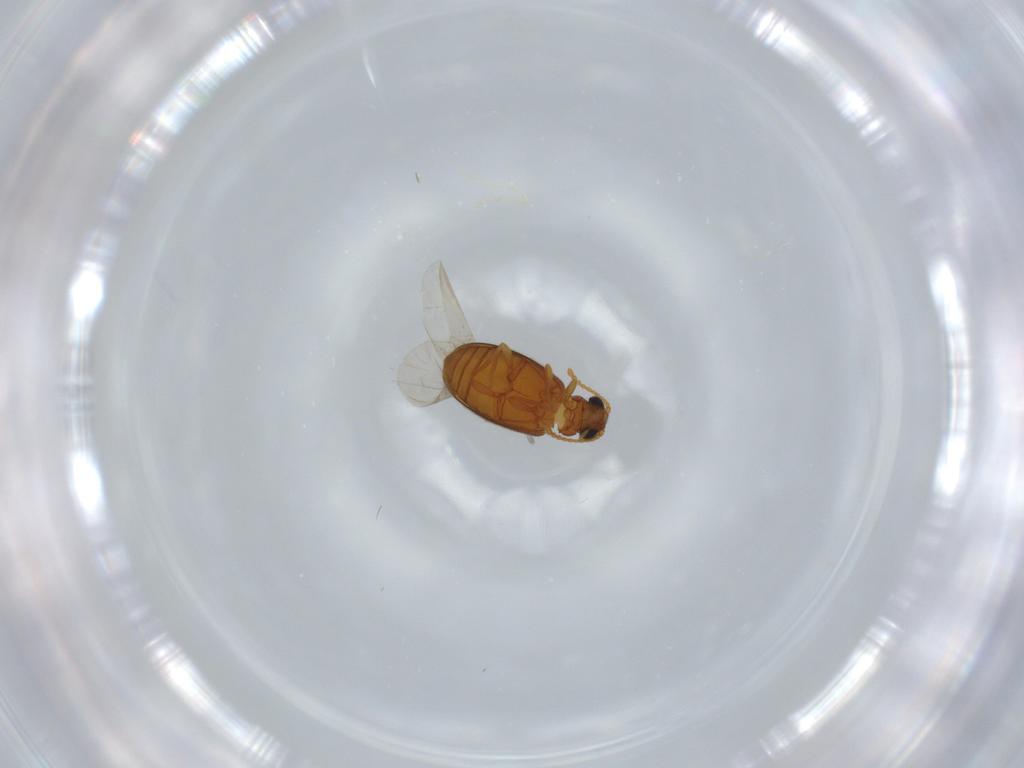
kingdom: Animalia
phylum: Arthropoda
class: Insecta
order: Coleoptera
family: Aderidae
